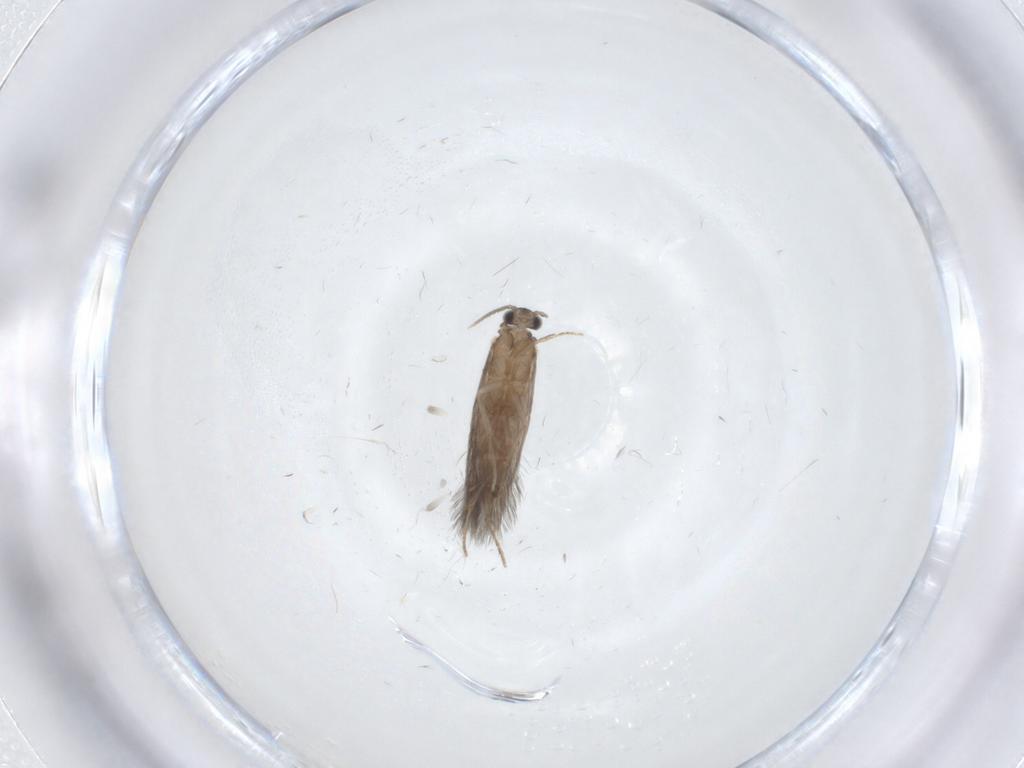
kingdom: Animalia
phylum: Arthropoda
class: Insecta
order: Trichoptera
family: Hydroptilidae
